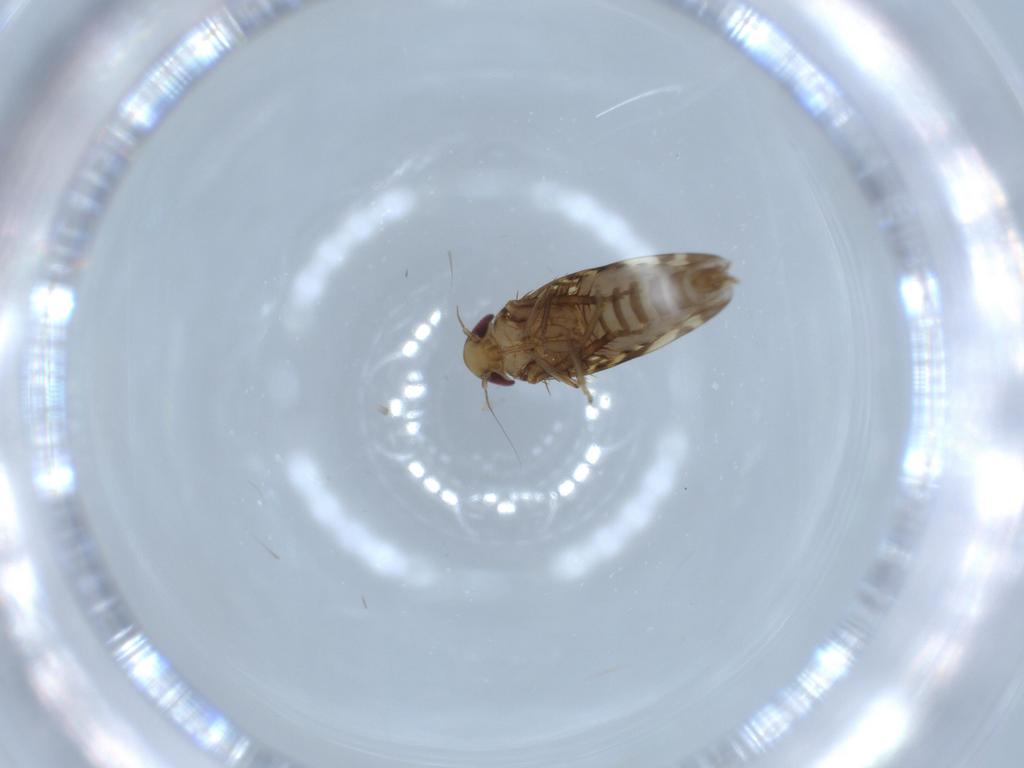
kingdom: Animalia
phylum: Arthropoda
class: Insecta
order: Hemiptera
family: Cicadellidae
